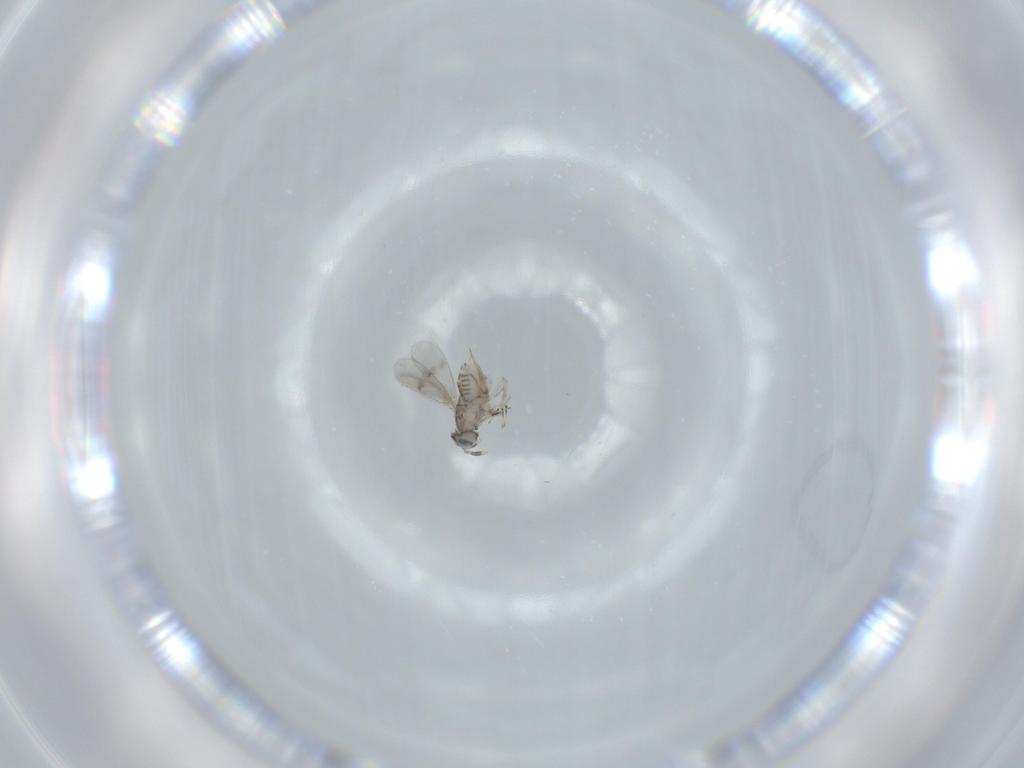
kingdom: Animalia
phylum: Arthropoda
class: Insecta
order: Hymenoptera
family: Aphelinidae
